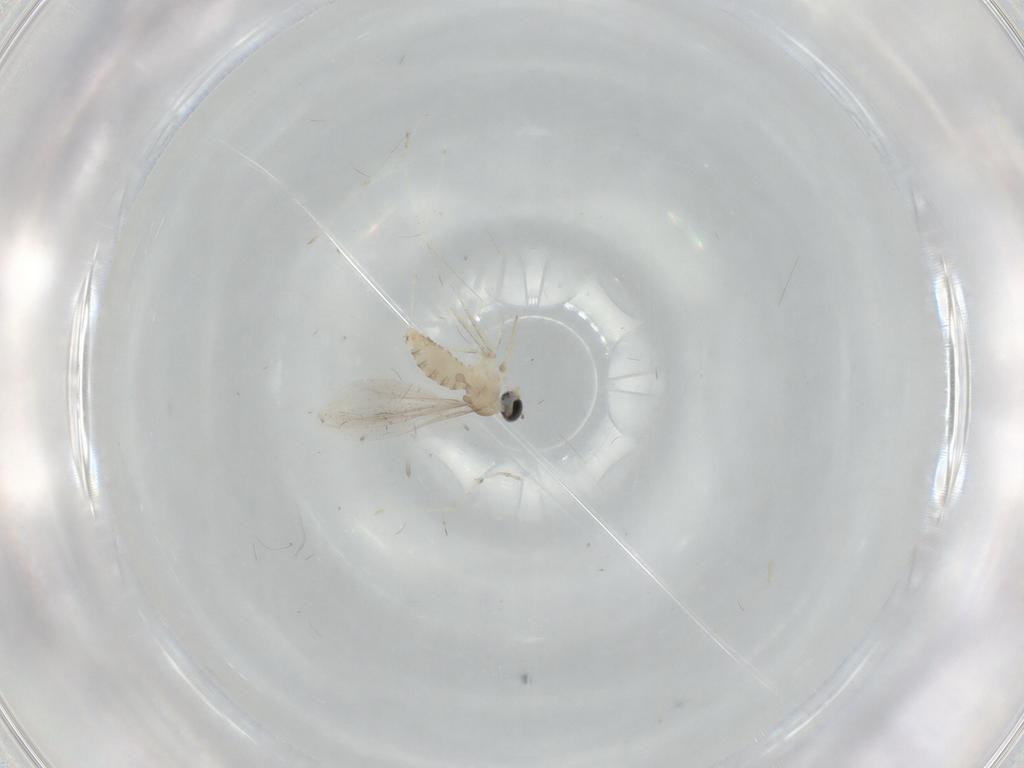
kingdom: Animalia
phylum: Arthropoda
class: Insecta
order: Diptera
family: Cecidomyiidae
